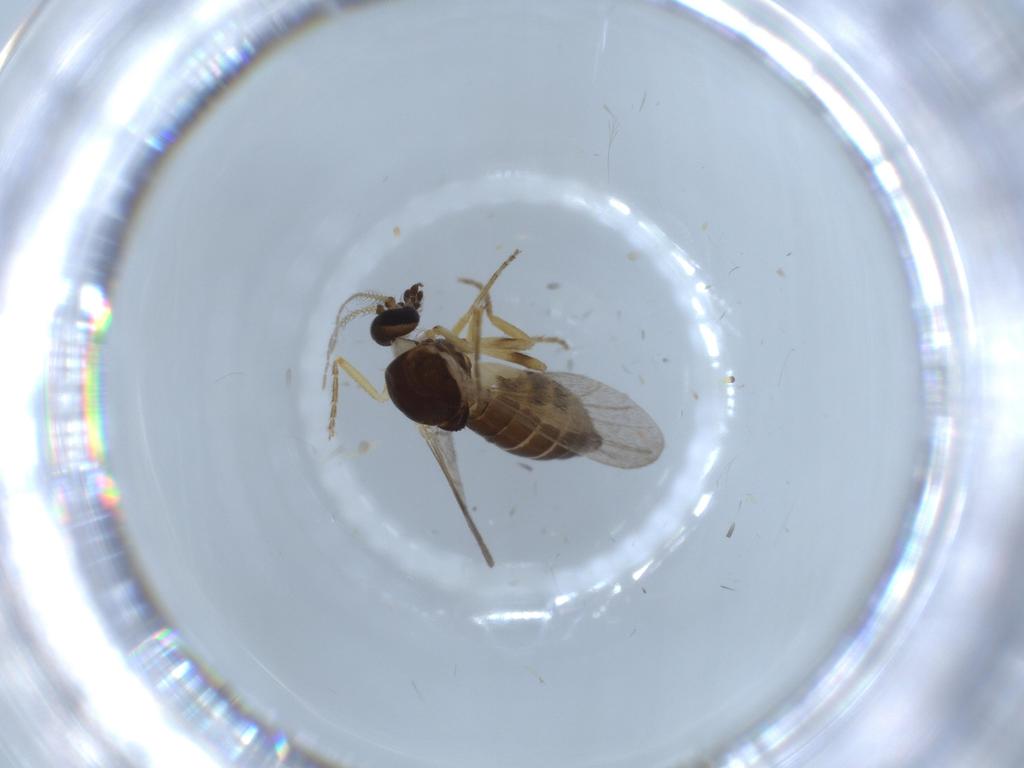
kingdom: Animalia
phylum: Arthropoda
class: Insecta
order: Diptera
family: Chloropidae
